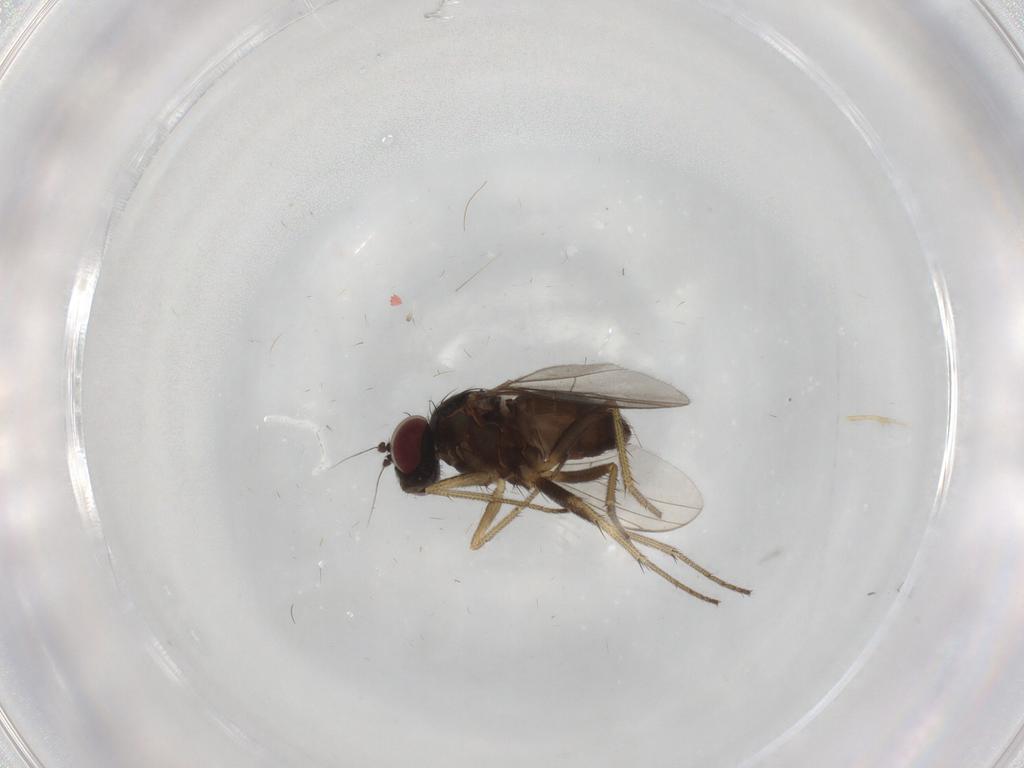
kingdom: Animalia
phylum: Arthropoda
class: Insecta
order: Diptera
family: Dolichopodidae
